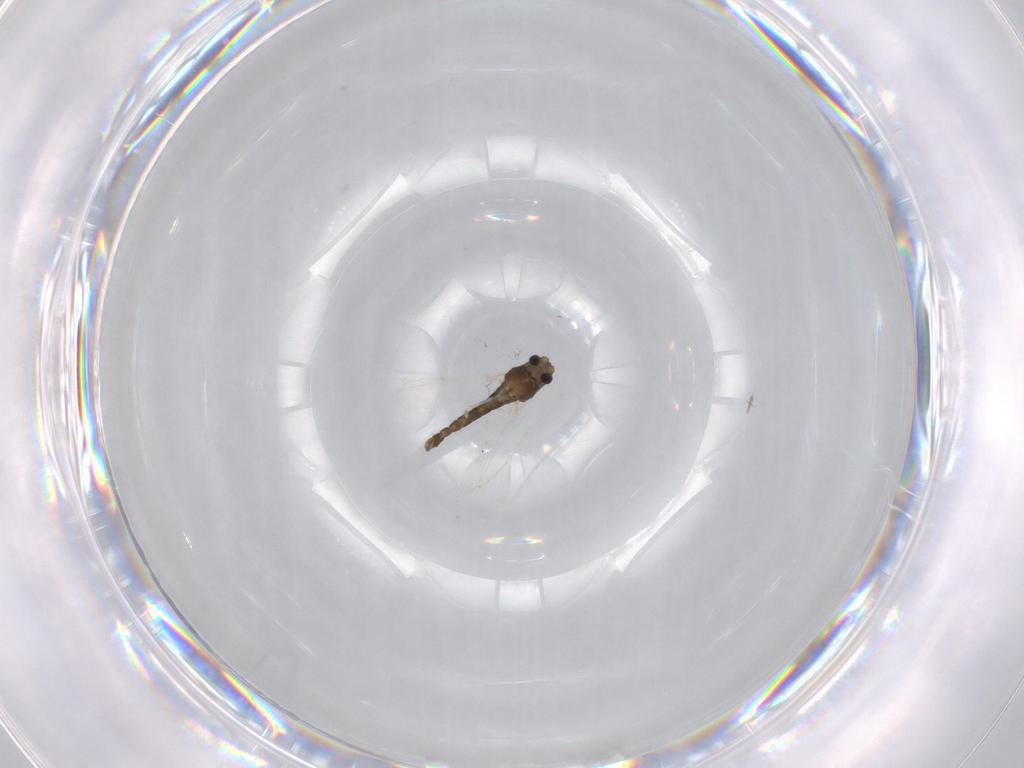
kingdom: Animalia
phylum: Arthropoda
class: Insecta
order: Diptera
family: Chironomidae
